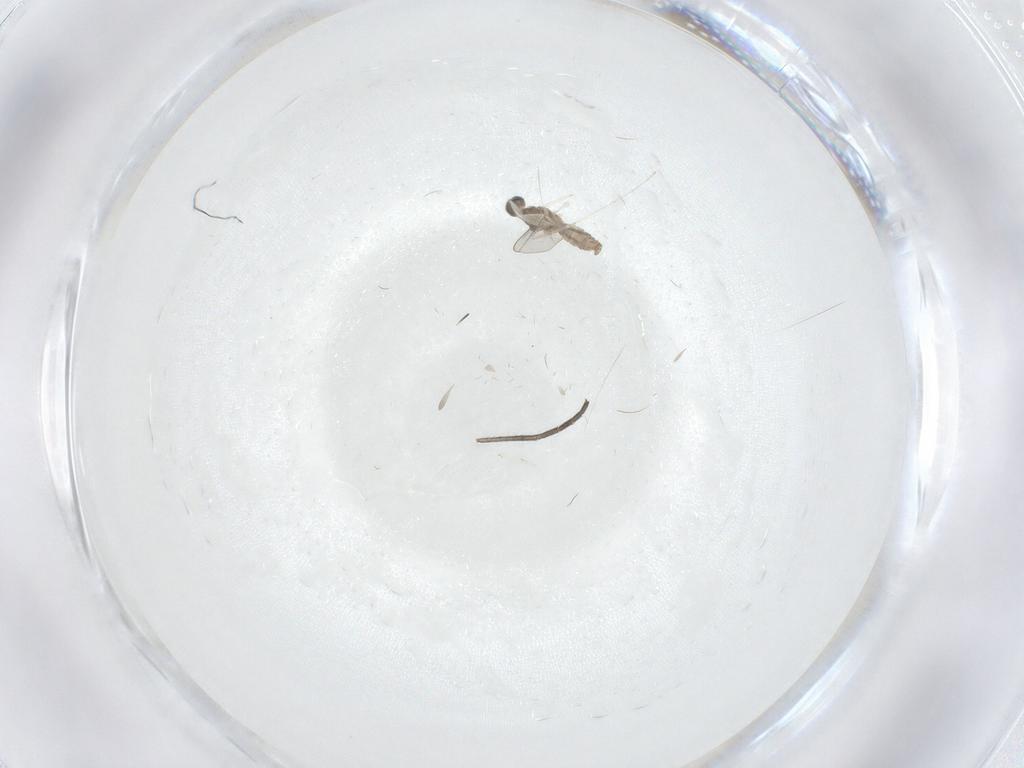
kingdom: Animalia
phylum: Arthropoda
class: Insecta
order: Diptera
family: Sciaridae
